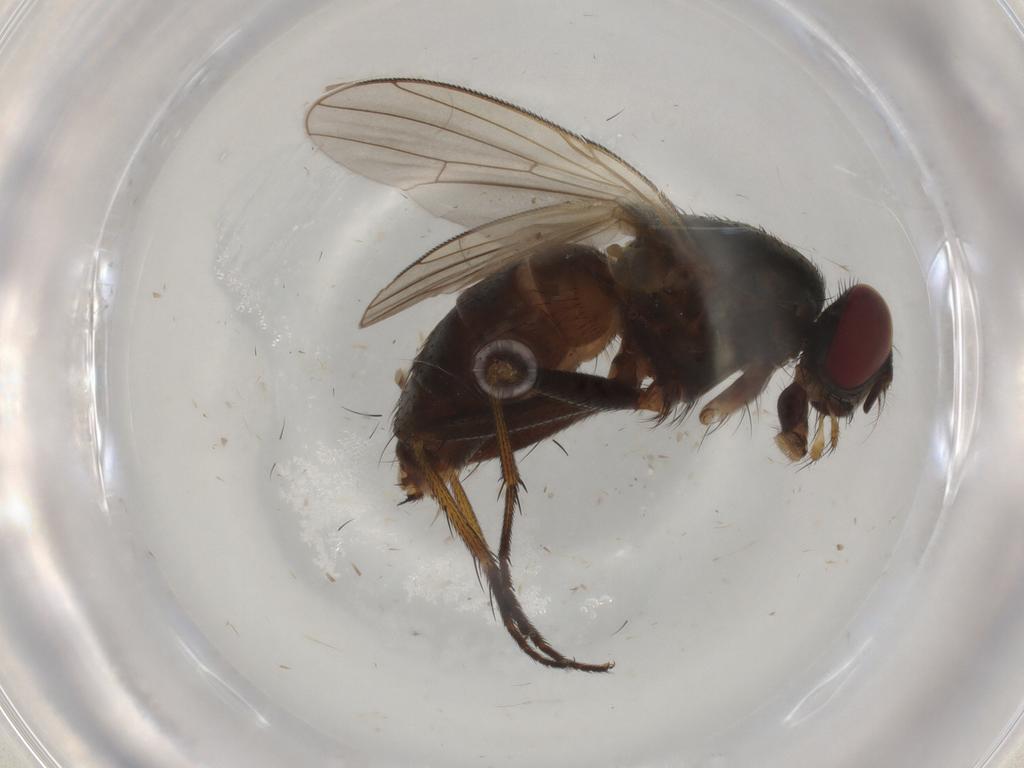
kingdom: Animalia
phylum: Arthropoda
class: Insecta
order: Diptera
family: Muscidae
